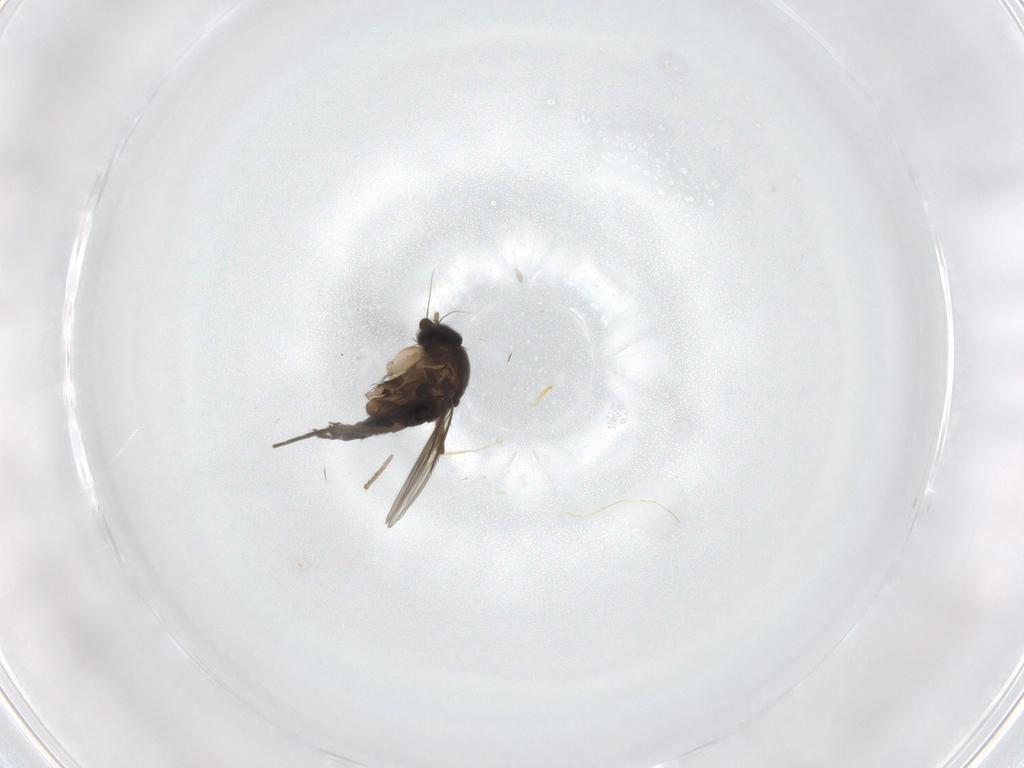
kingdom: Animalia
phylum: Arthropoda
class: Insecta
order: Diptera
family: Phoridae
